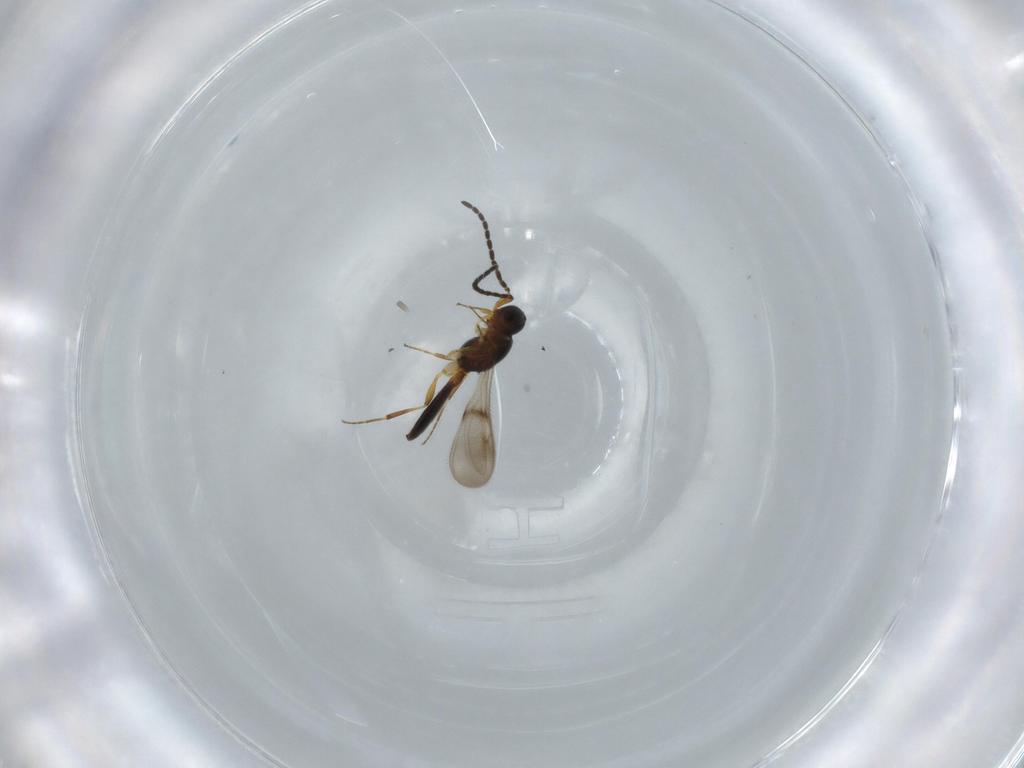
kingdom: Animalia
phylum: Arthropoda
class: Insecta
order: Hymenoptera
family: Scelionidae
